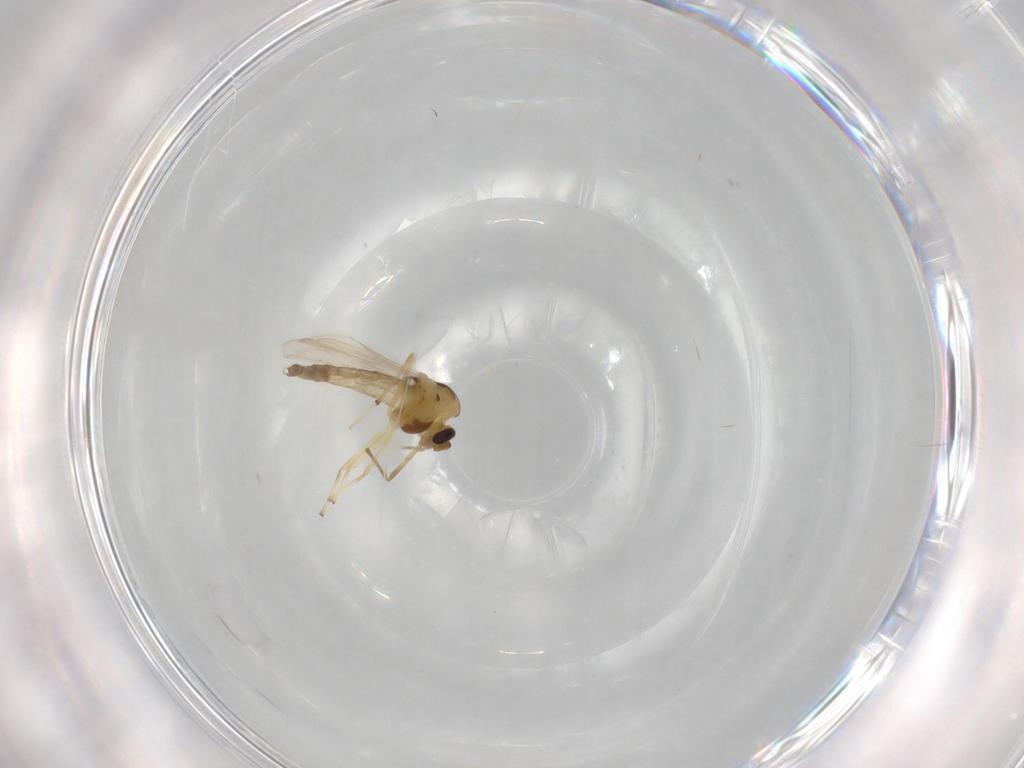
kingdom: Animalia
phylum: Arthropoda
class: Insecta
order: Diptera
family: Chironomidae
